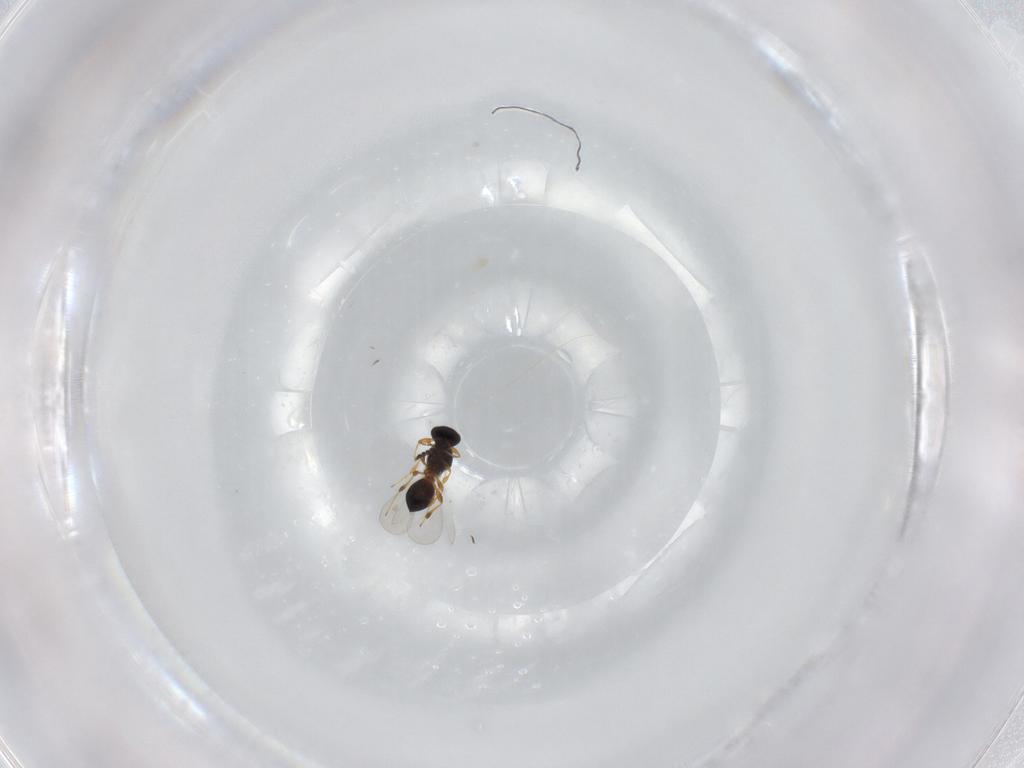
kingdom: Animalia
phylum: Arthropoda
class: Insecta
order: Hymenoptera
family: Platygastridae
